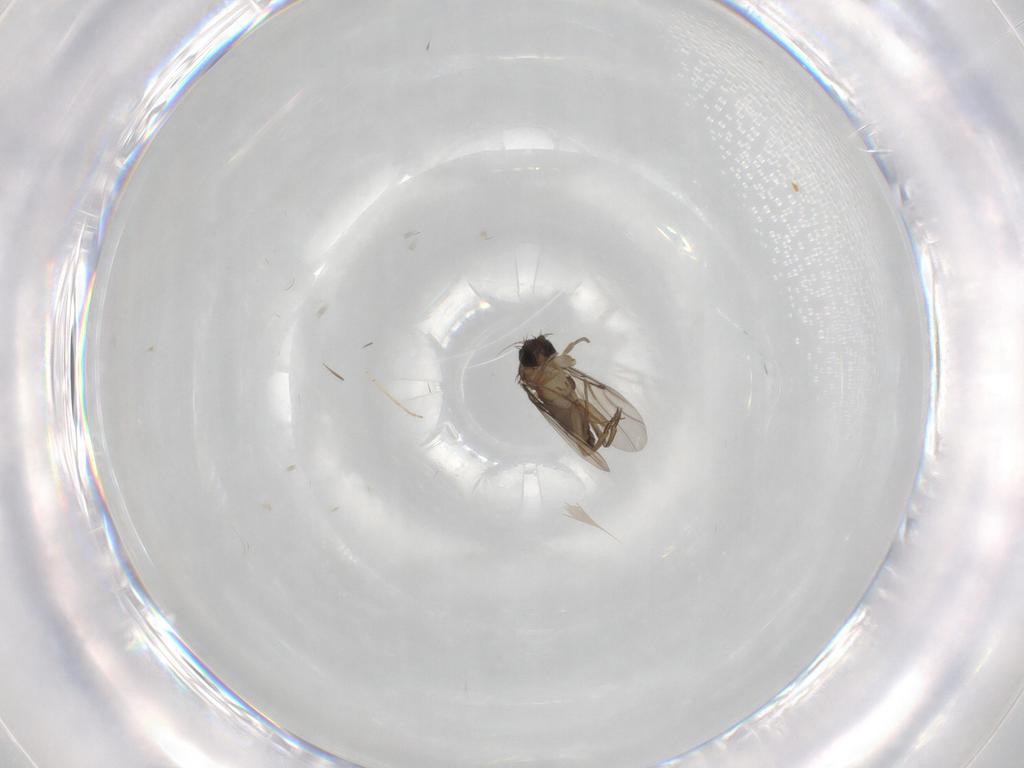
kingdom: Animalia
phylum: Arthropoda
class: Insecta
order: Diptera
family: Phoridae
